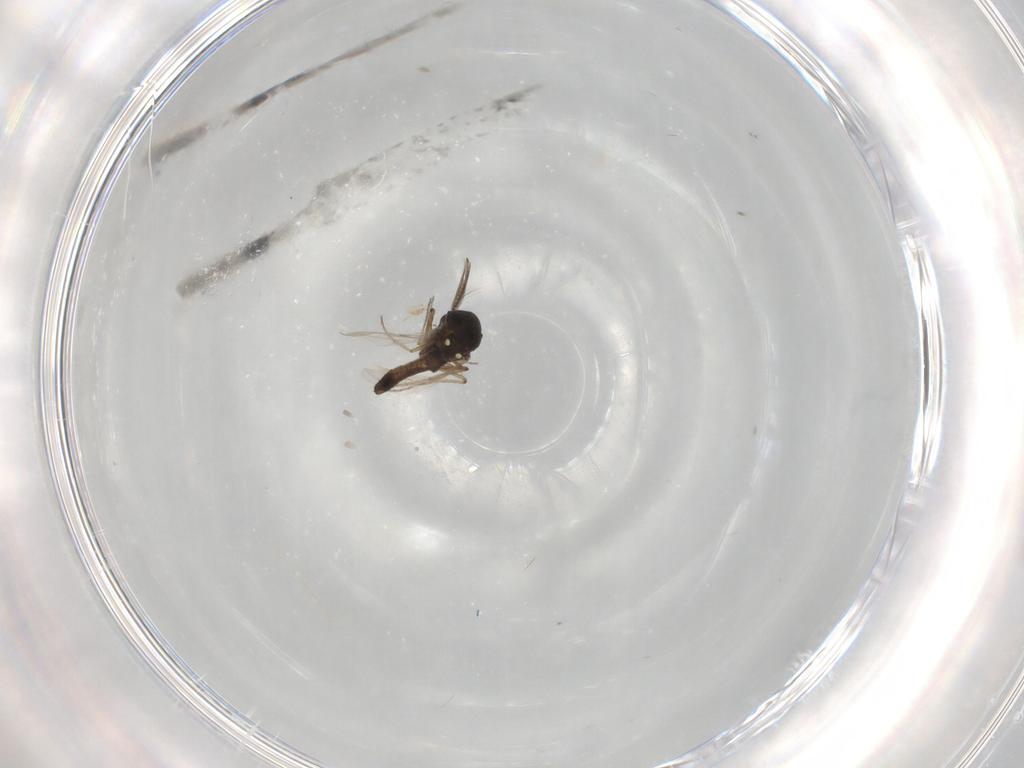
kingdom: Animalia
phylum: Arthropoda
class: Insecta
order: Diptera
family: Ceratopogonidae
